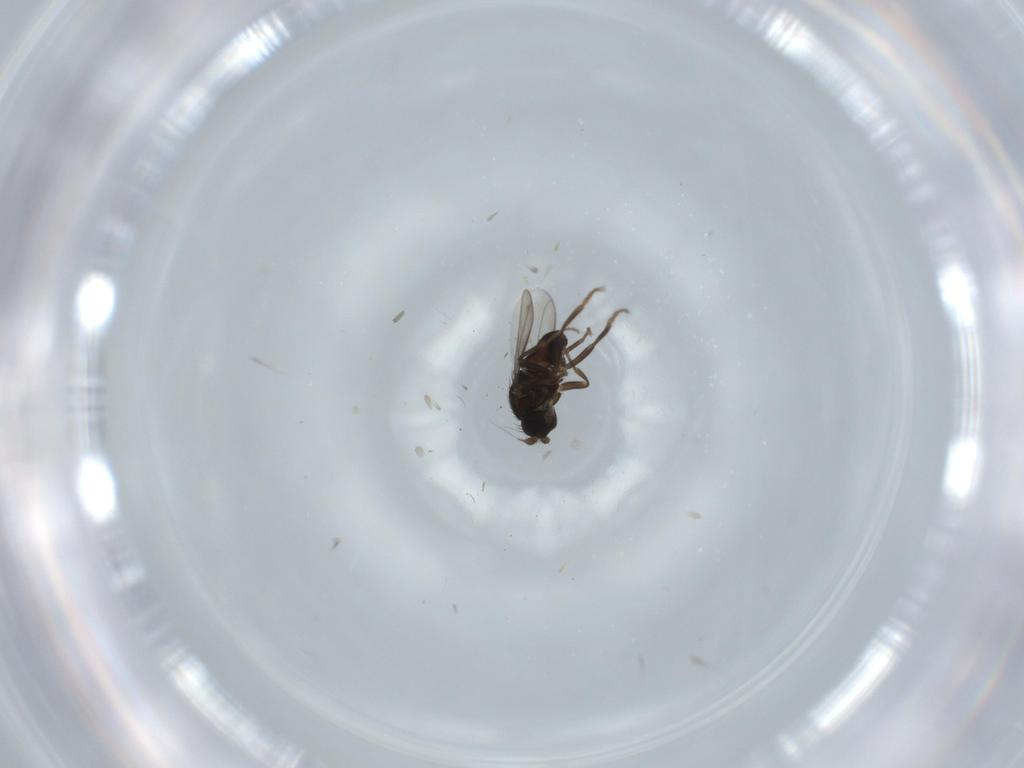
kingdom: Animalia
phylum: Arthropoda
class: Insecta
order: Diptera
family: Sphaeroceridae
